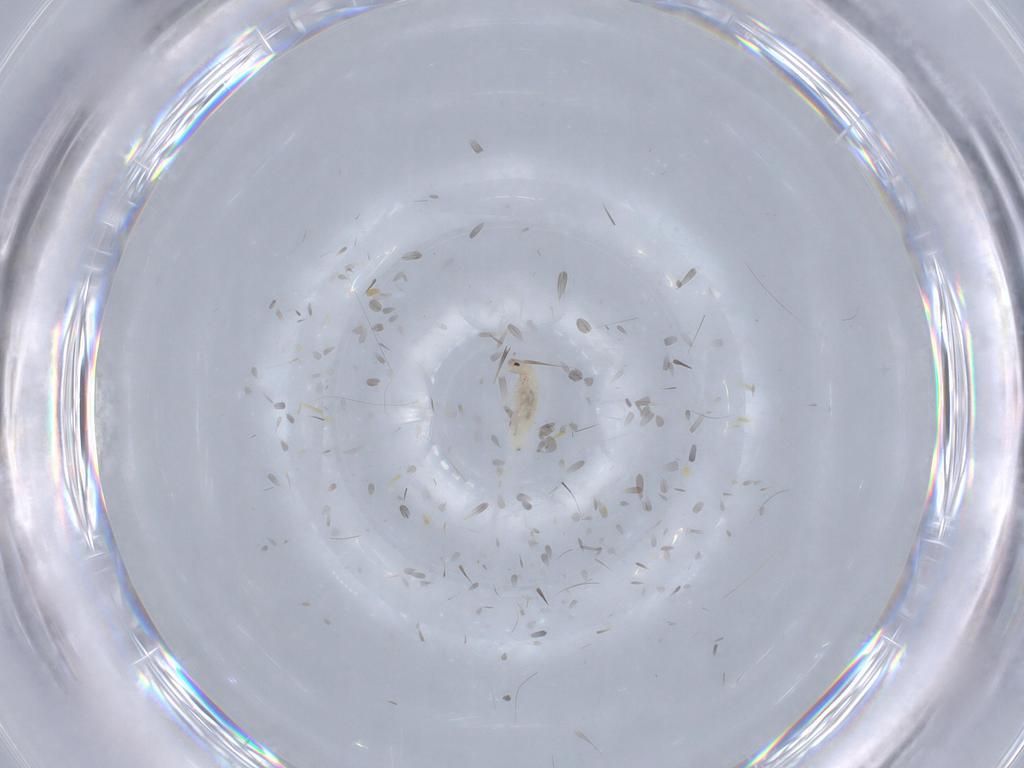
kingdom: Animalia
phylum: Arthropoda
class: Collembola
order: Entomobryomorpha
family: Entomobryidae
